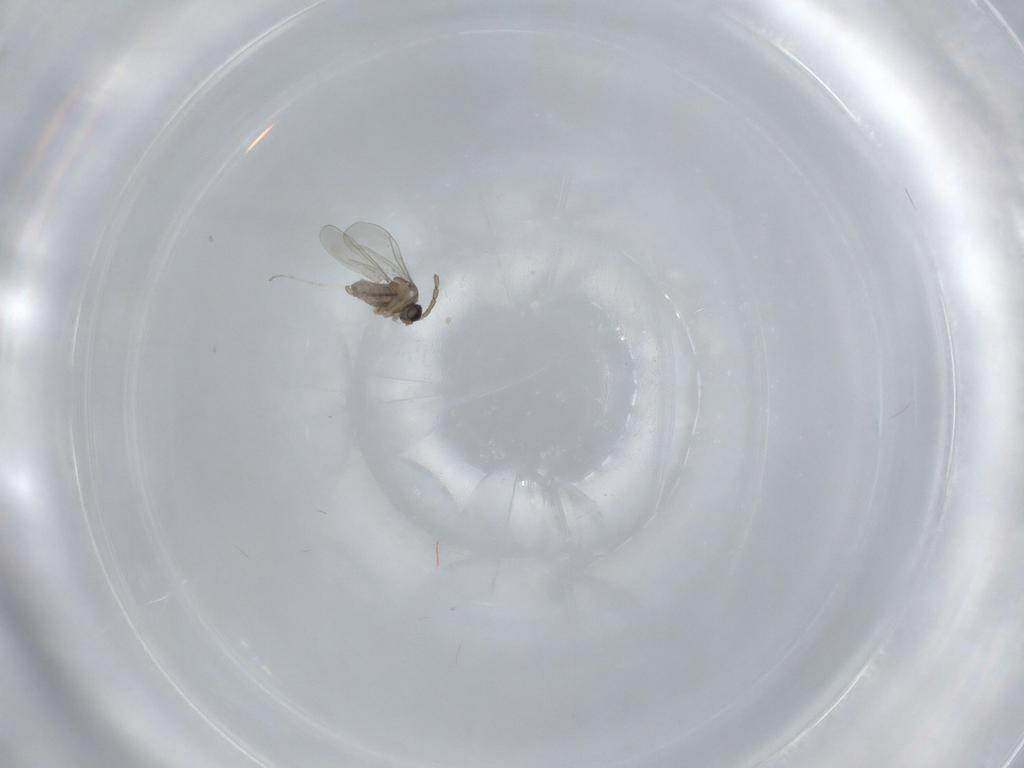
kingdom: Animalia
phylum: Arthropoda
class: Insecta
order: Diptera
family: Cecidomyiidae
